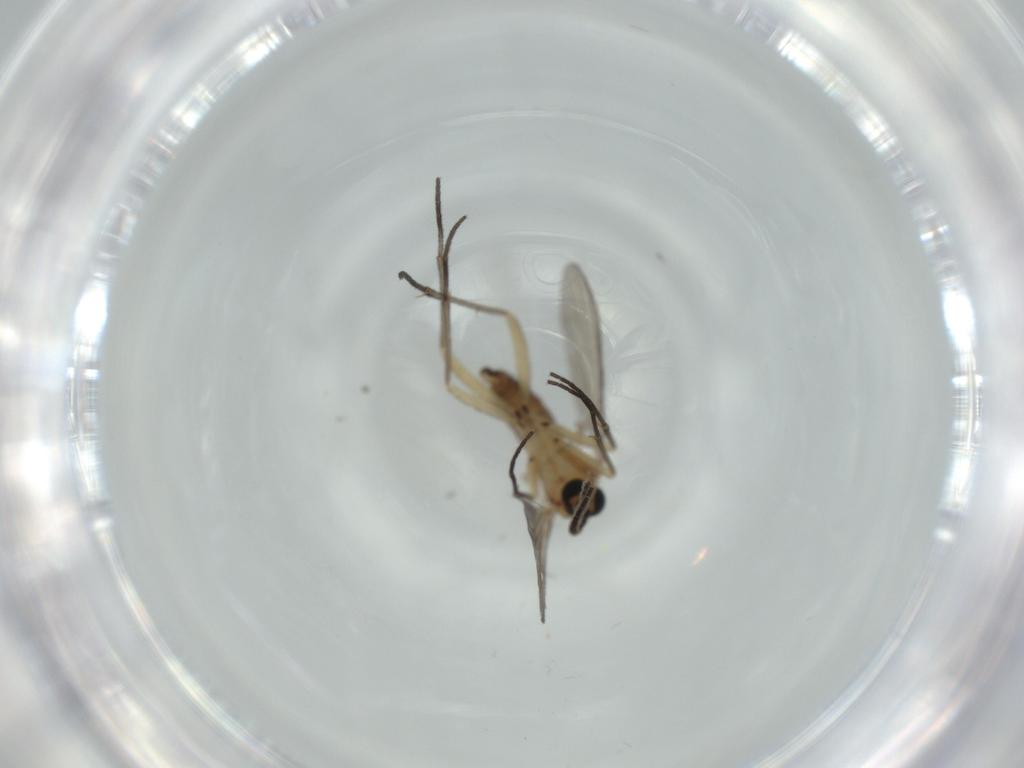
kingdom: Animalia
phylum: Arthropoda
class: Insecta
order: Diptera
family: Sciaridae
